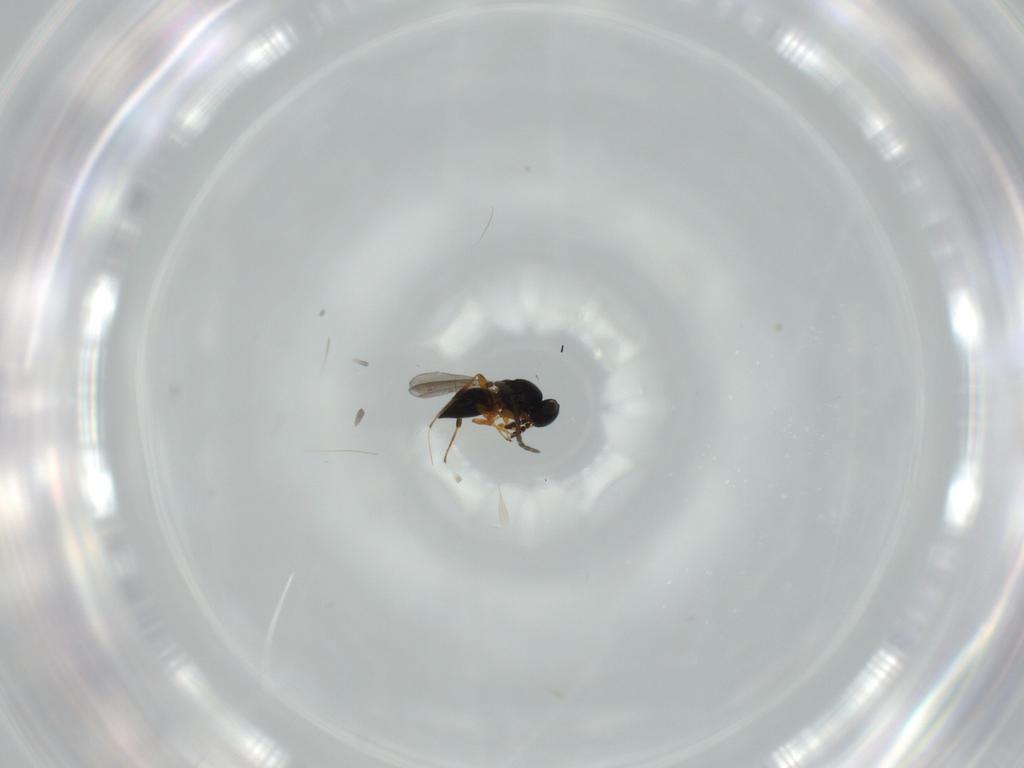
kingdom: Animalia
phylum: Arthropoda
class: Insecta
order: Hymenoptera
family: Platygastridae
